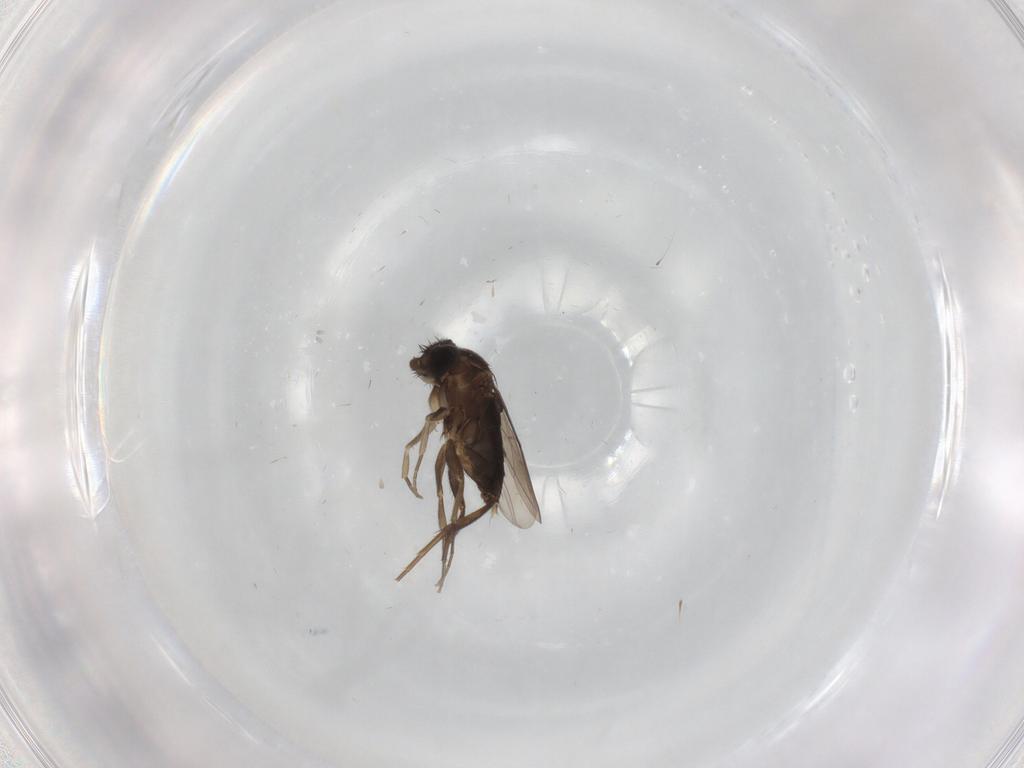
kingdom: Animalia
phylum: Arthropoda
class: Insecta
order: Diptera
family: Phoridae
